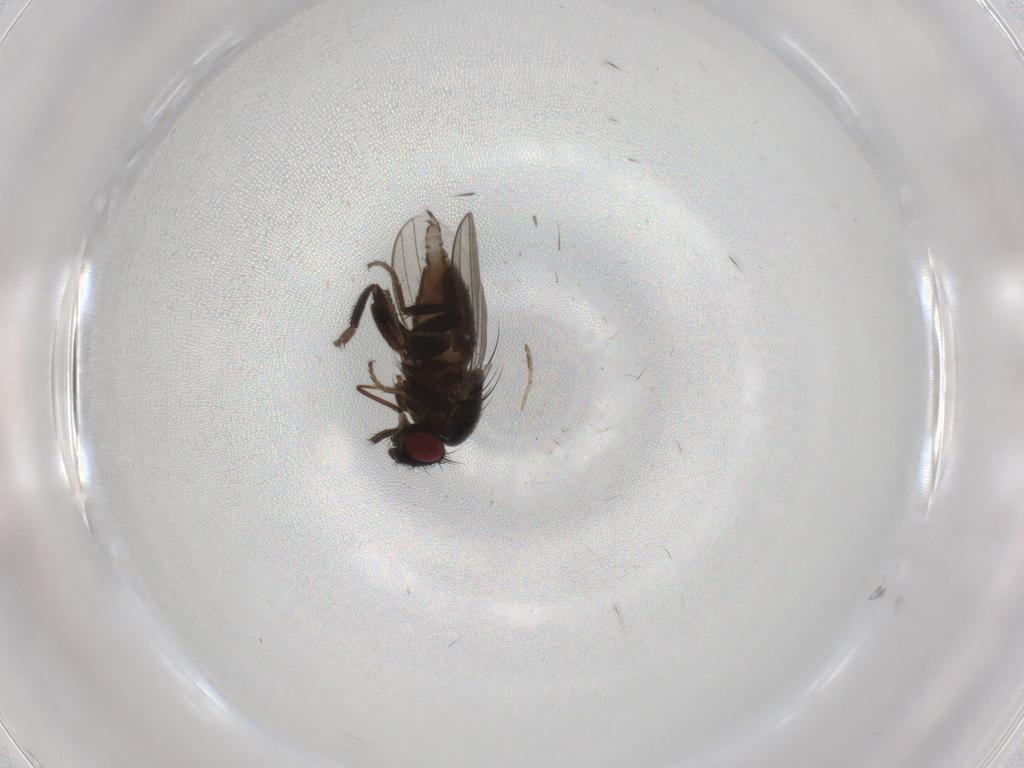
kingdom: Animalia
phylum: Arthropoda
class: Insecta
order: Diptera
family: Milichiidae
